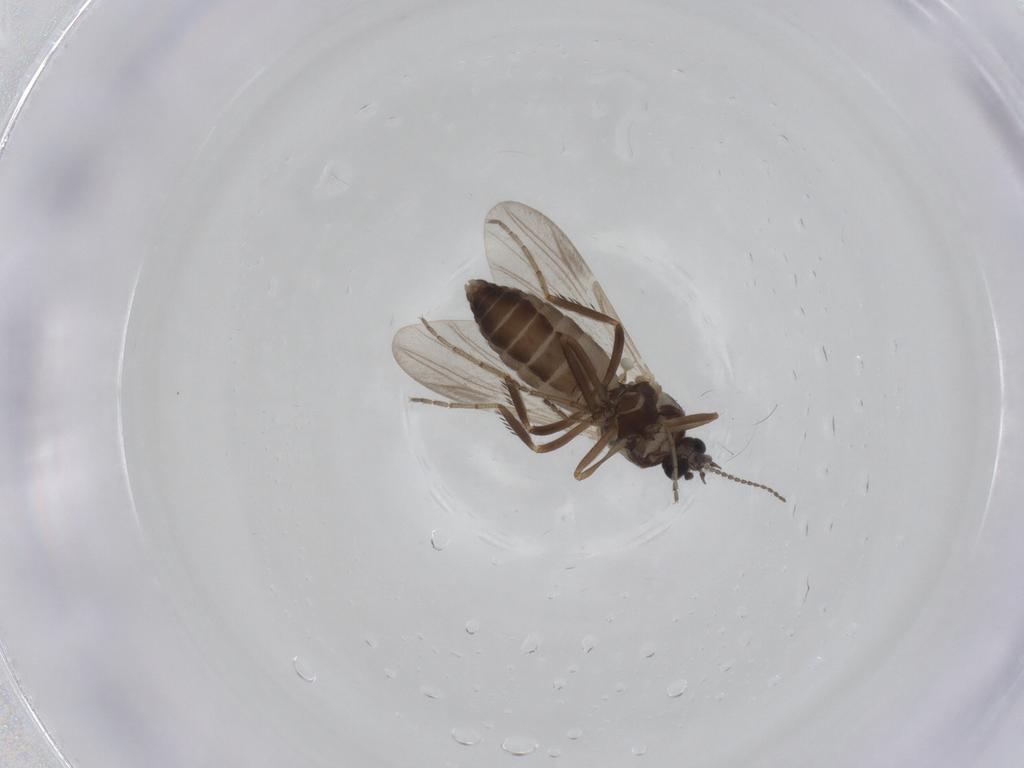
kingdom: Animalia
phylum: Arthropoda
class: Insecta
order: Diptera
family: Ceratopogonidae
